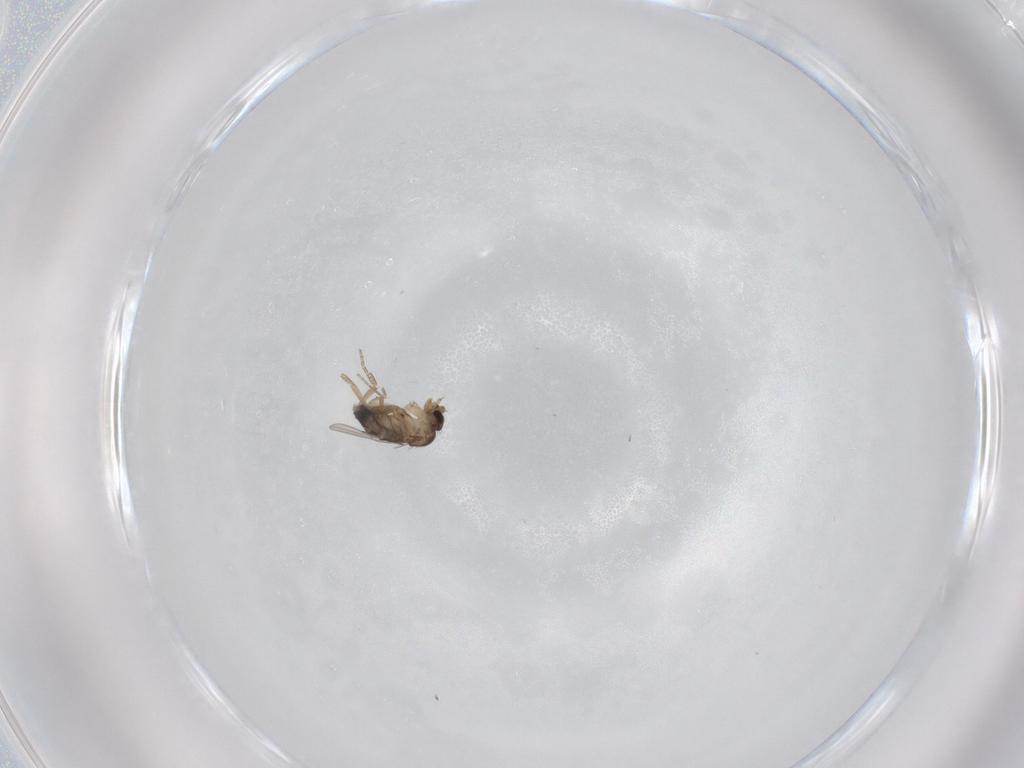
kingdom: Animalia
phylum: Arthropoda
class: Insecta
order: Diptera
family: Phoridae
